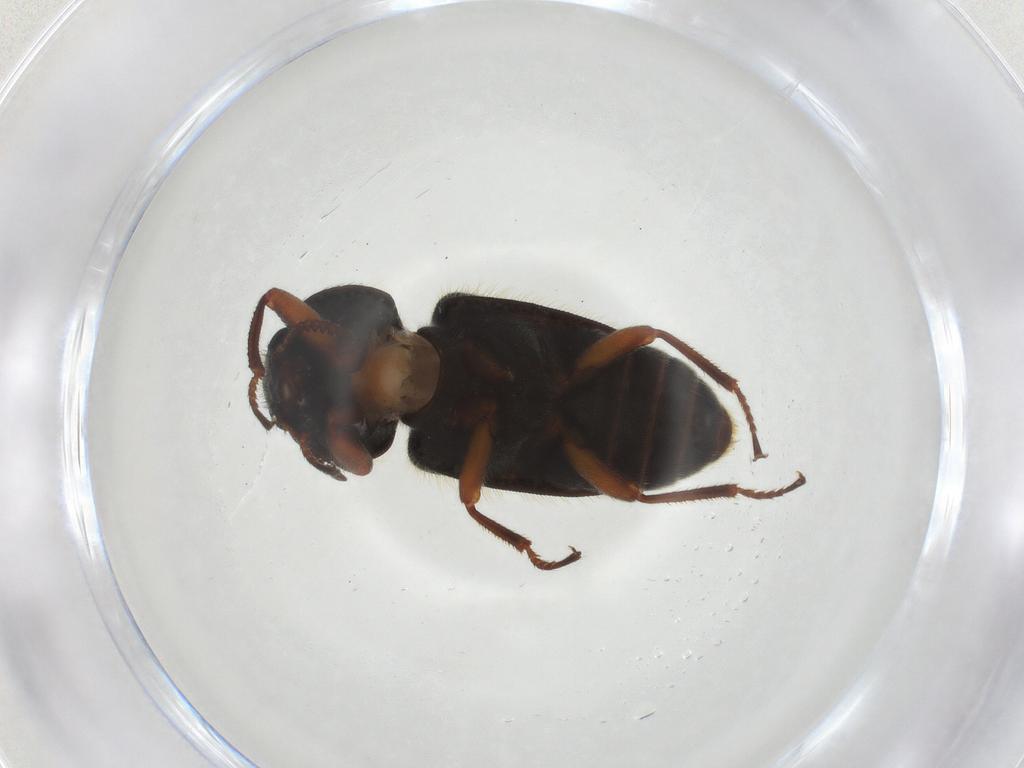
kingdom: Animalia
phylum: Arthropoda
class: Insecta
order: Coleoptera
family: Melyridae
